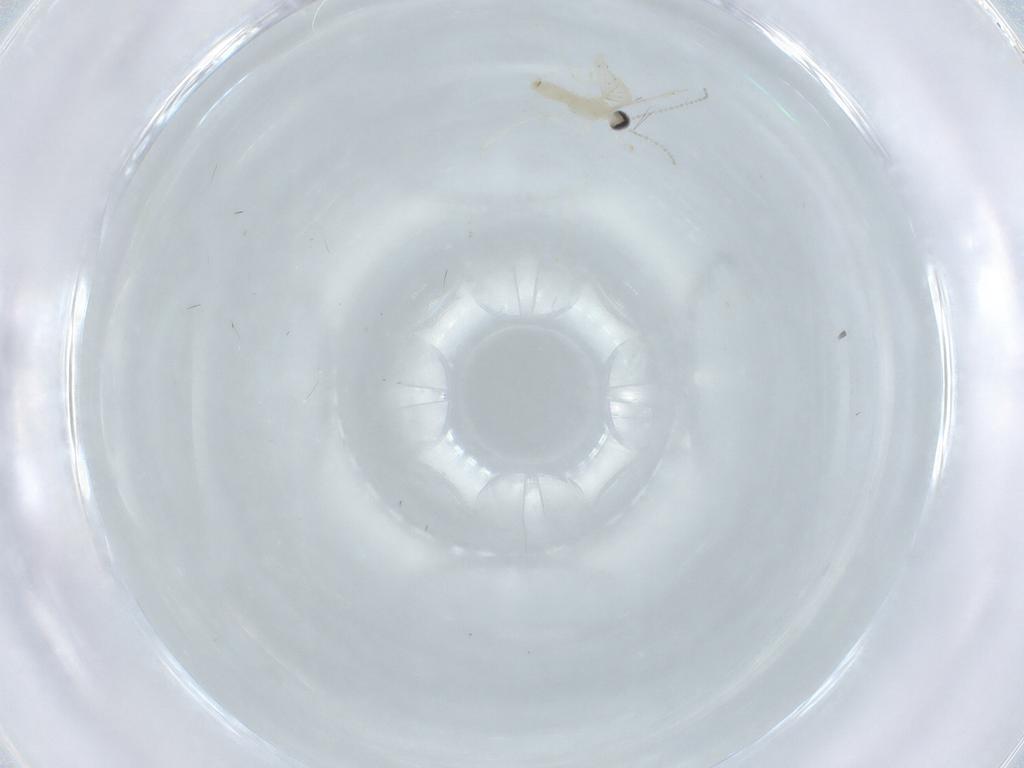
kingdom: Animalia
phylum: Arthropoda
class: Insecta
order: Diptera
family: Cecidomyiidae
